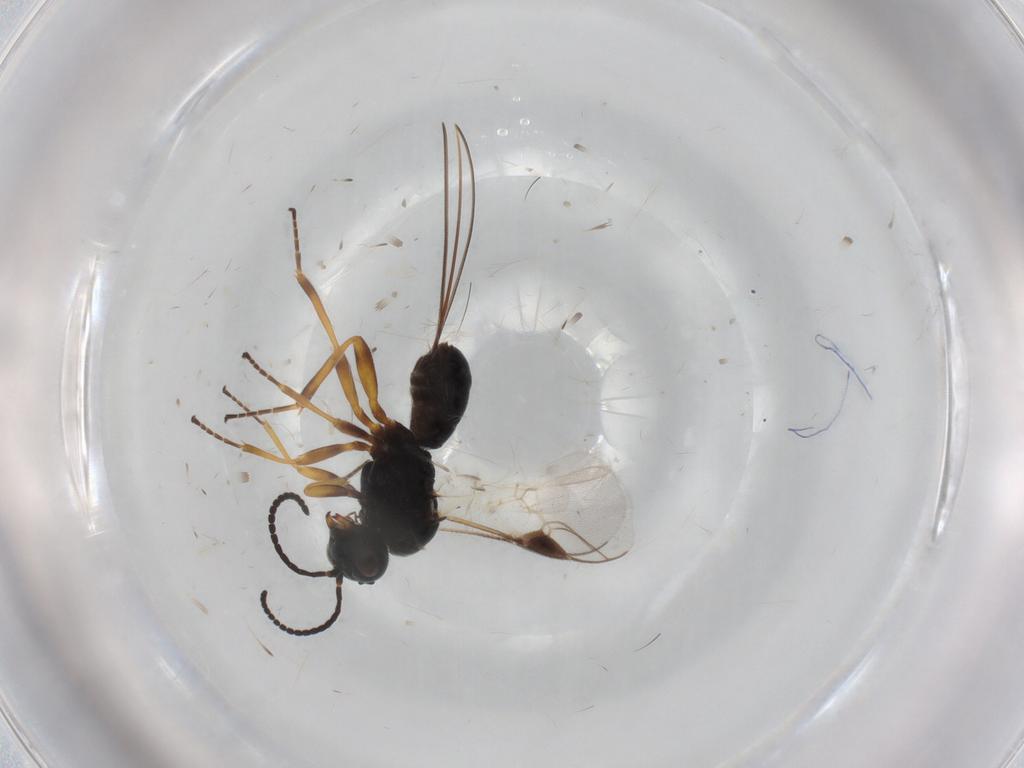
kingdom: Animalia
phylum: Arthropoda
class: Insecta
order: Hymenoptera
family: Braconidae
